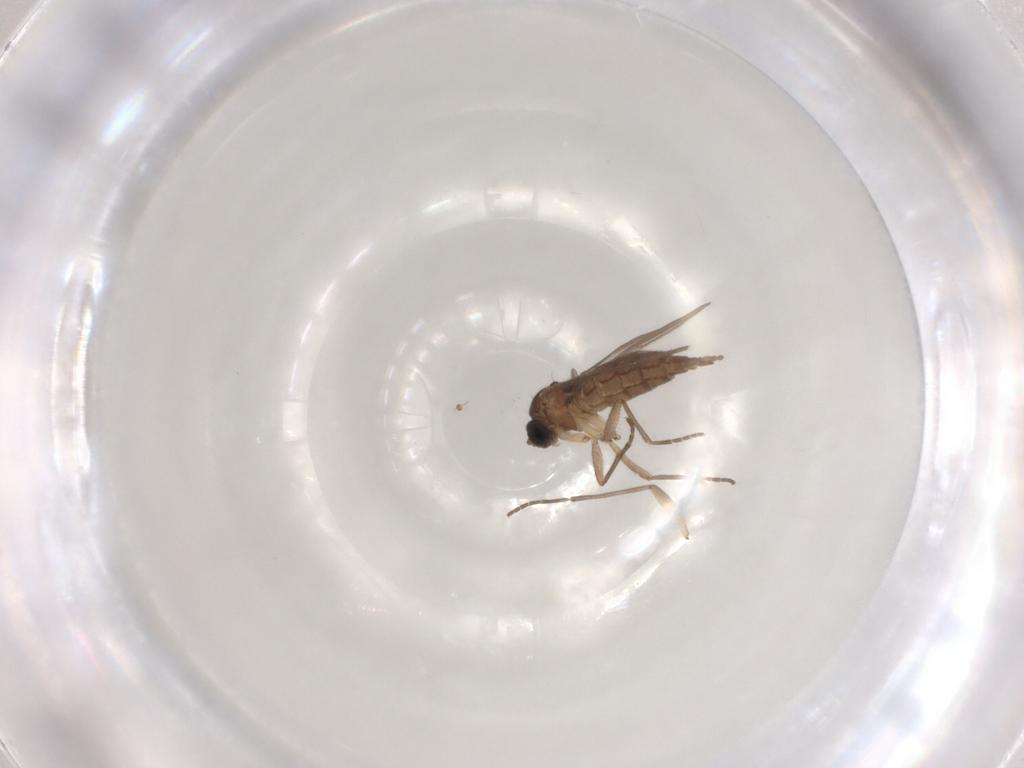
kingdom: Animalia
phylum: Arthropoda
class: Insecta
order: Diptera
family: Sciaridae
